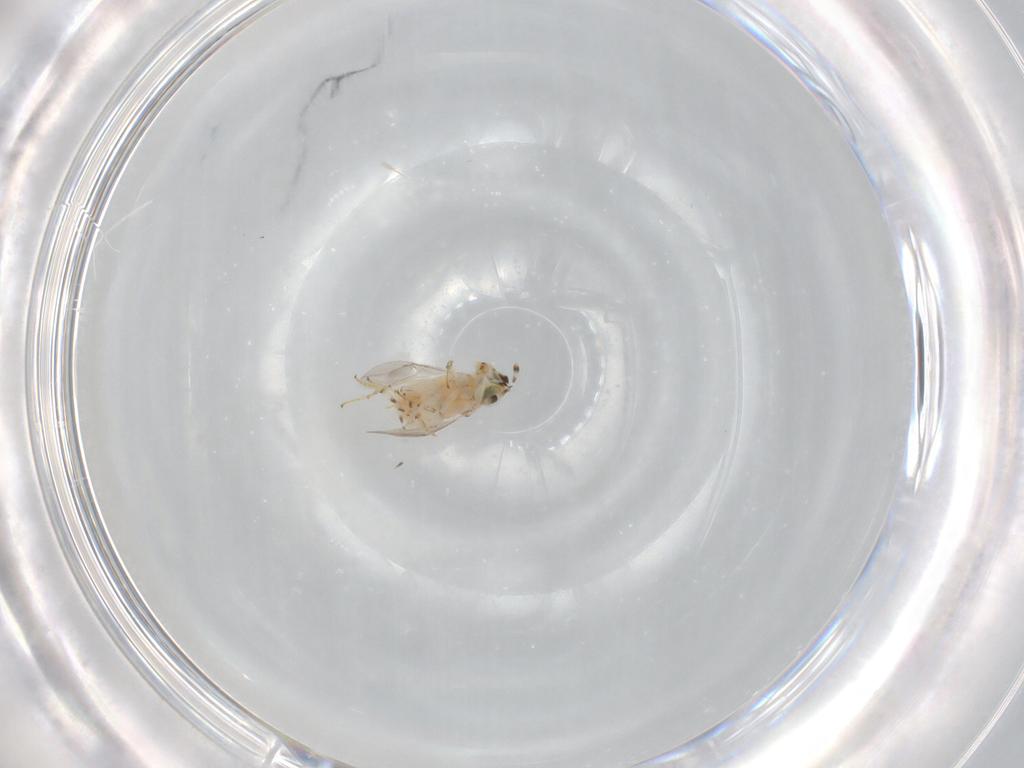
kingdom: Animalia
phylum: Arthropoda
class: Insecta
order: Hymenoptera
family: Encyrtidae
